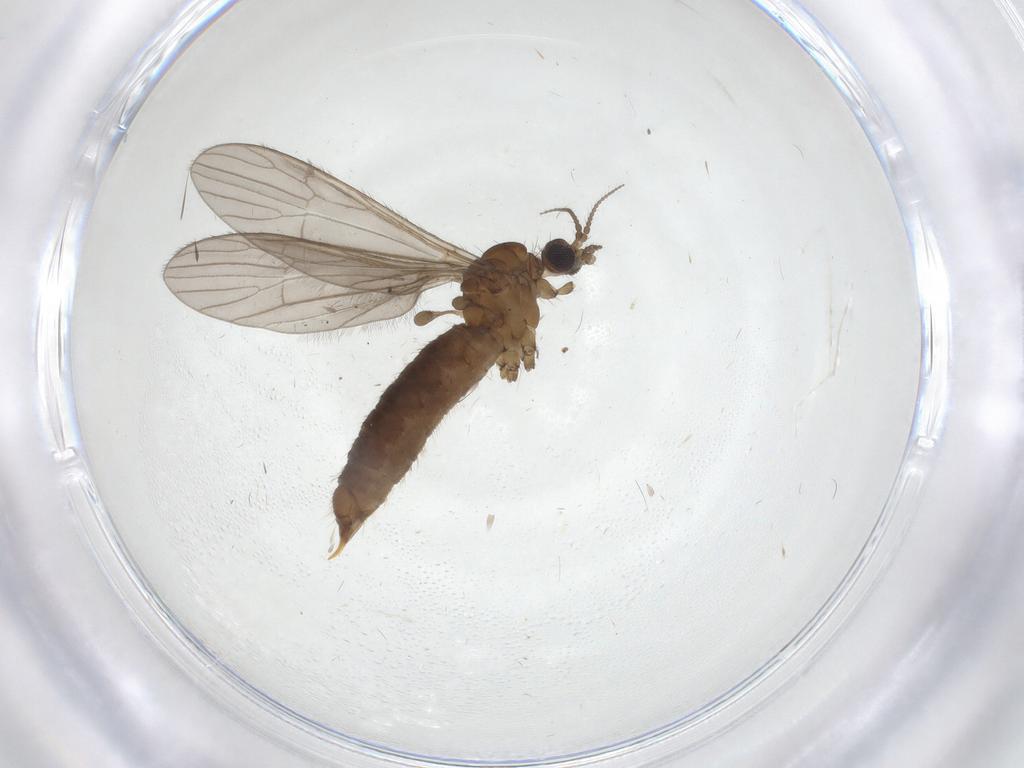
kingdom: Animalia
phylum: Arthropoda
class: Insecta
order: Diptera
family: Limoniidae
